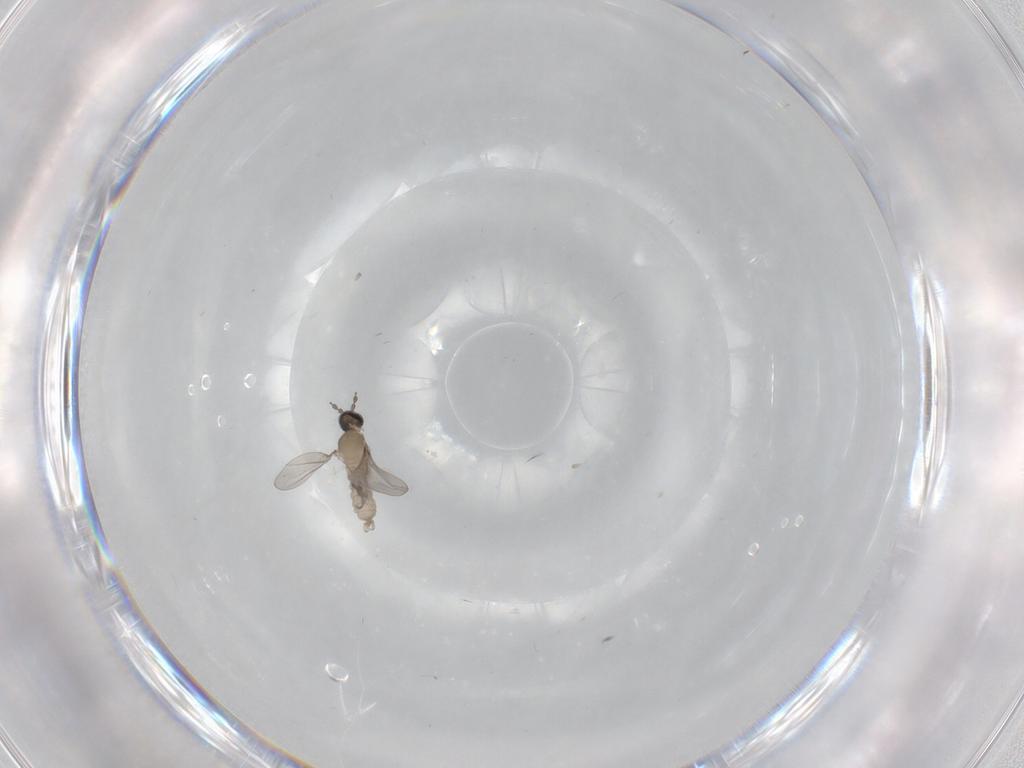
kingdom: Animalia
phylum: Arthropoda
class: Insecta
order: Diptera
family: Cecidomyiidae
